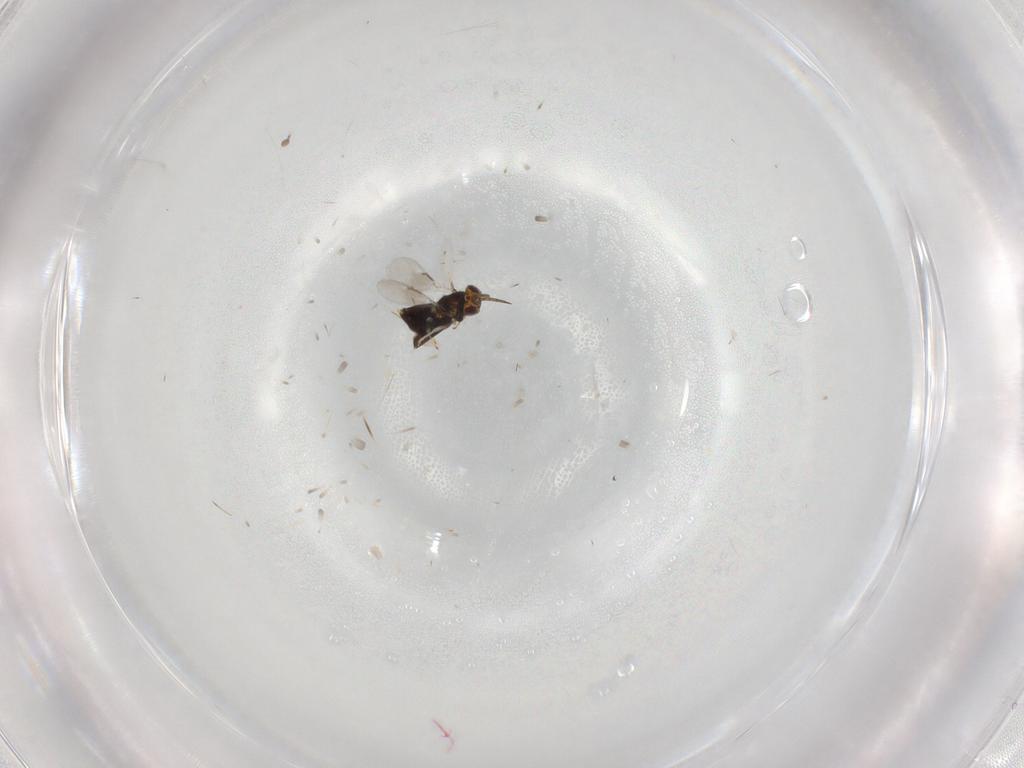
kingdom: Animalia
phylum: Arthropoda
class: Insecta
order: Hymenoptera
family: Aphelinidae
